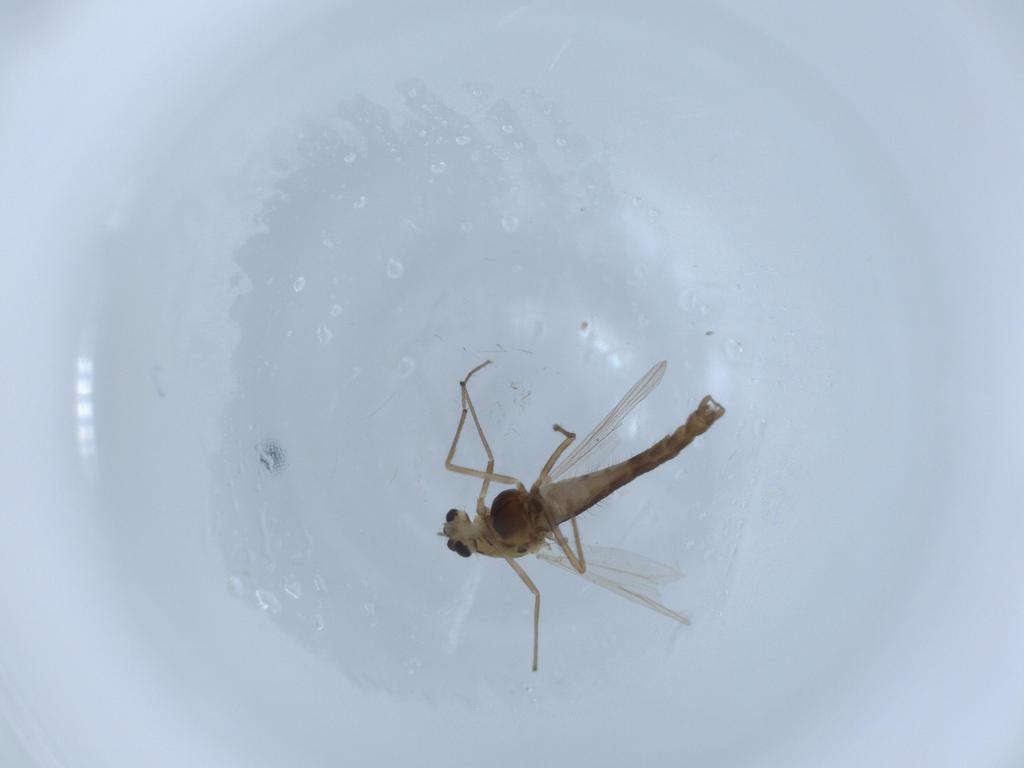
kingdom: Animalia
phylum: Arthropoda
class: Insecta
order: Diptera
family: Chironomidae
